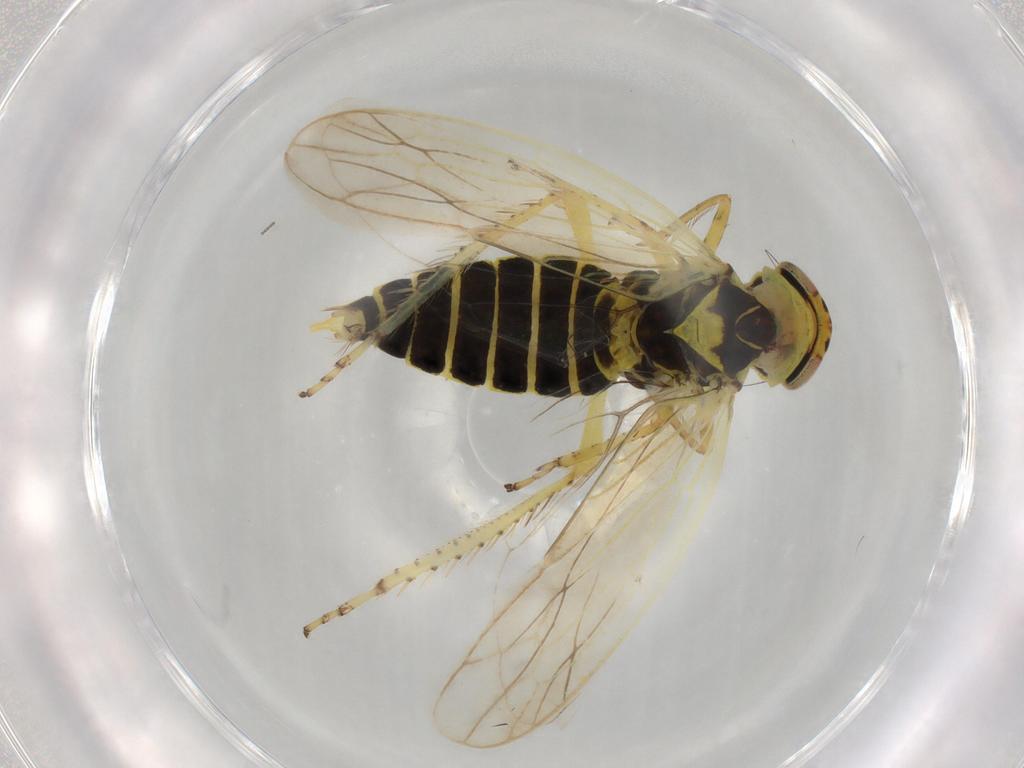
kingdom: Animalia
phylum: Arthropoda
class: Insecta
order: Hemiptera
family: Cicadellidae
